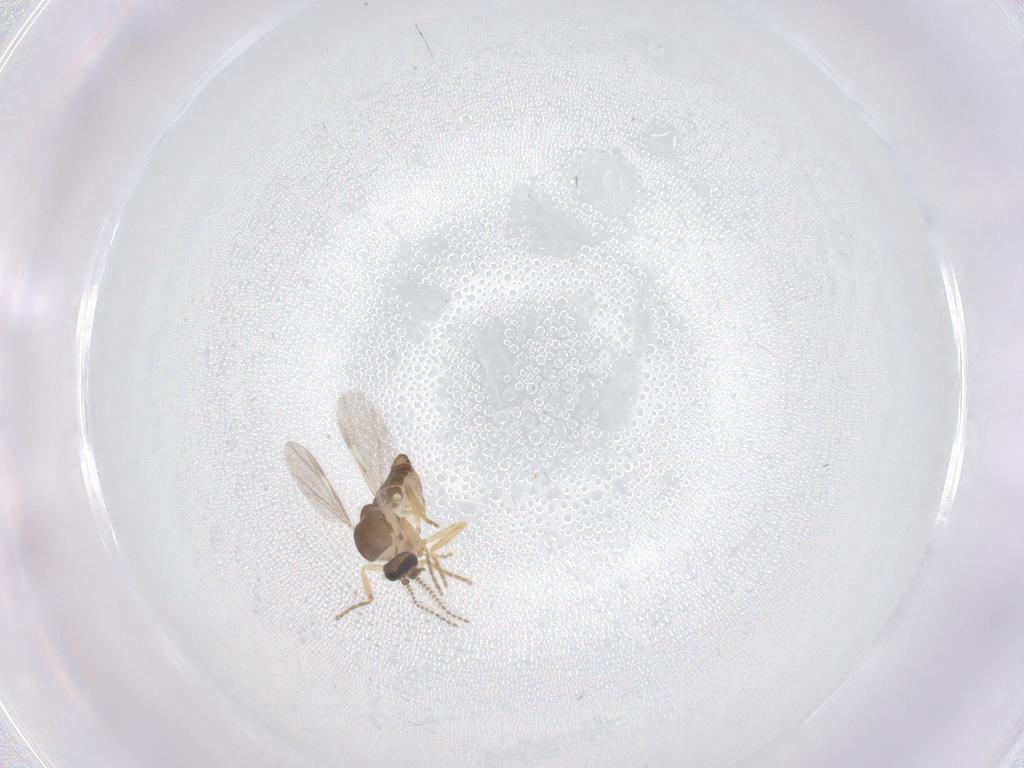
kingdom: Animalia
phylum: Arthropoda
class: Insecta
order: Diptera
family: Ceratopogonidae
